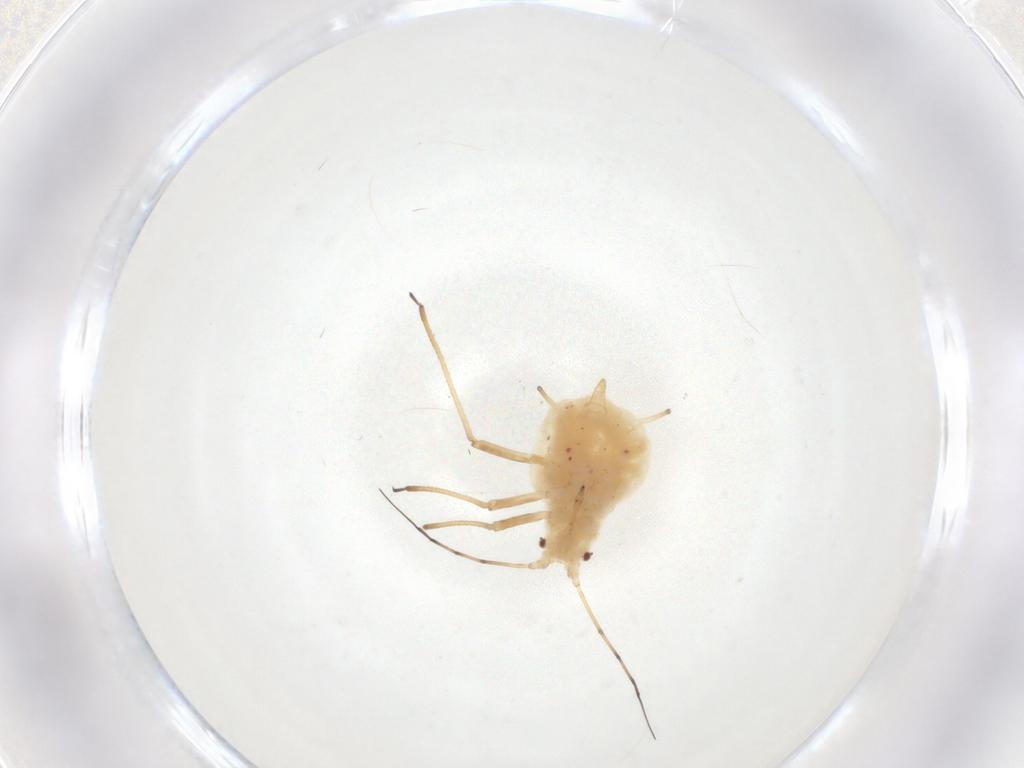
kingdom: Animalia
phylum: Arthropoda
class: Insecta
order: Hemiptera
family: Aphididae
